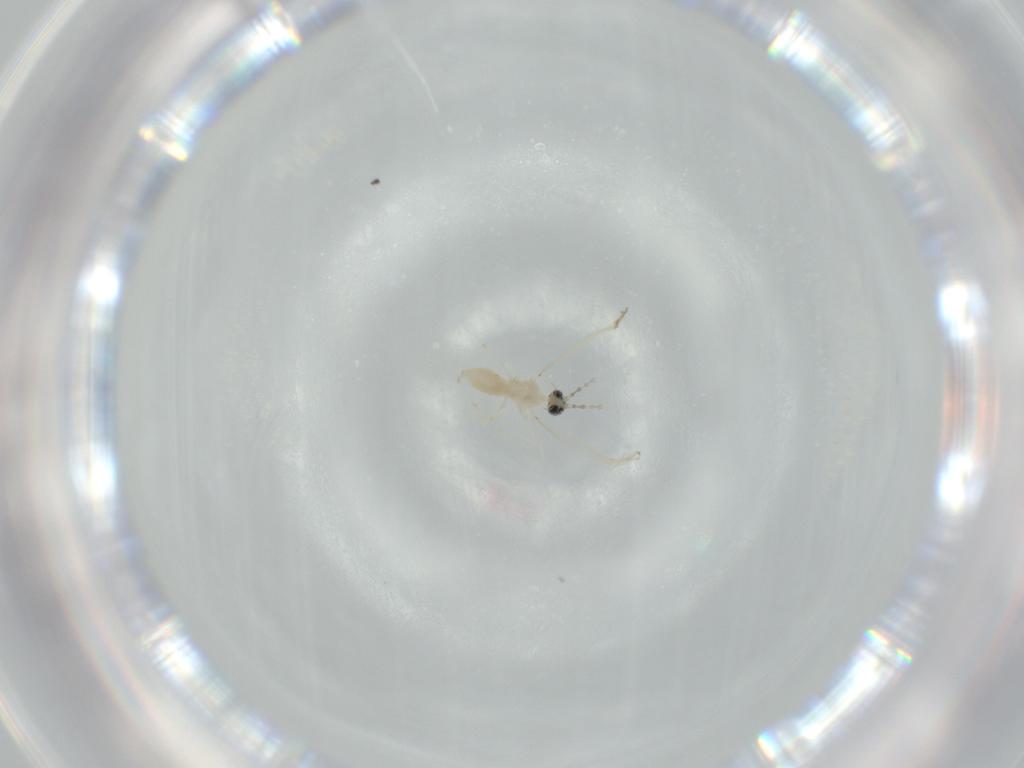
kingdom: Animalia
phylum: Arthropoda
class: Insecta
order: Diptera
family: Cecidomyiidae
